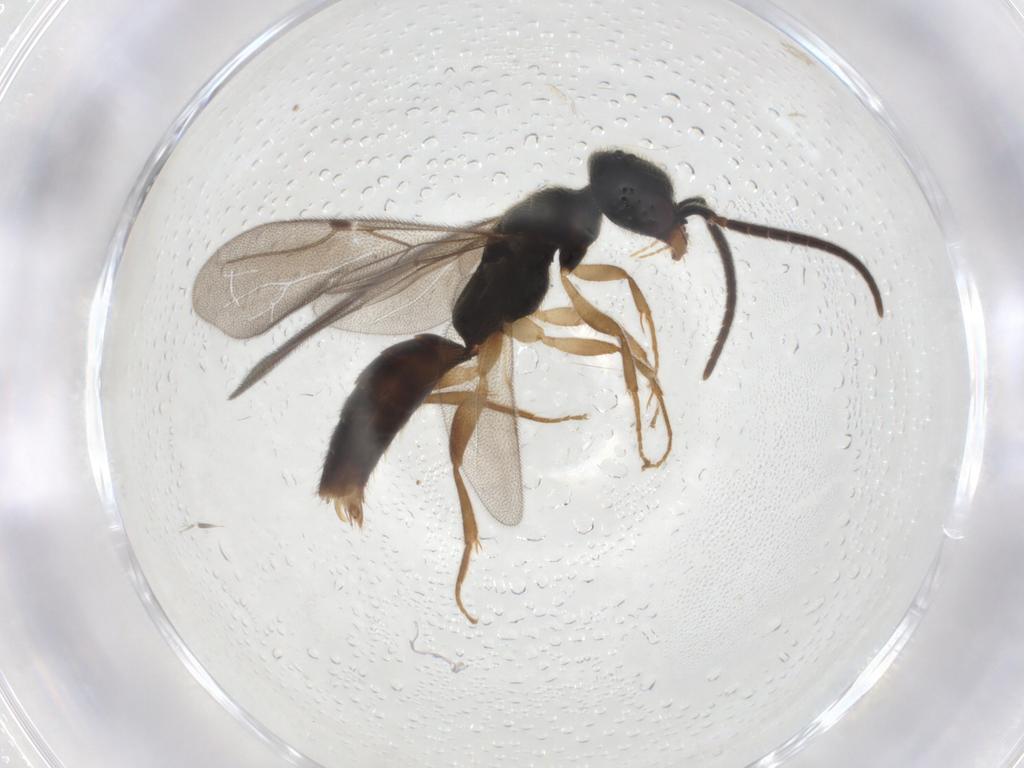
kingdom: Animalia
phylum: Arthropoda
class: Insecta
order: Hymenoptera
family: Bethylidae
